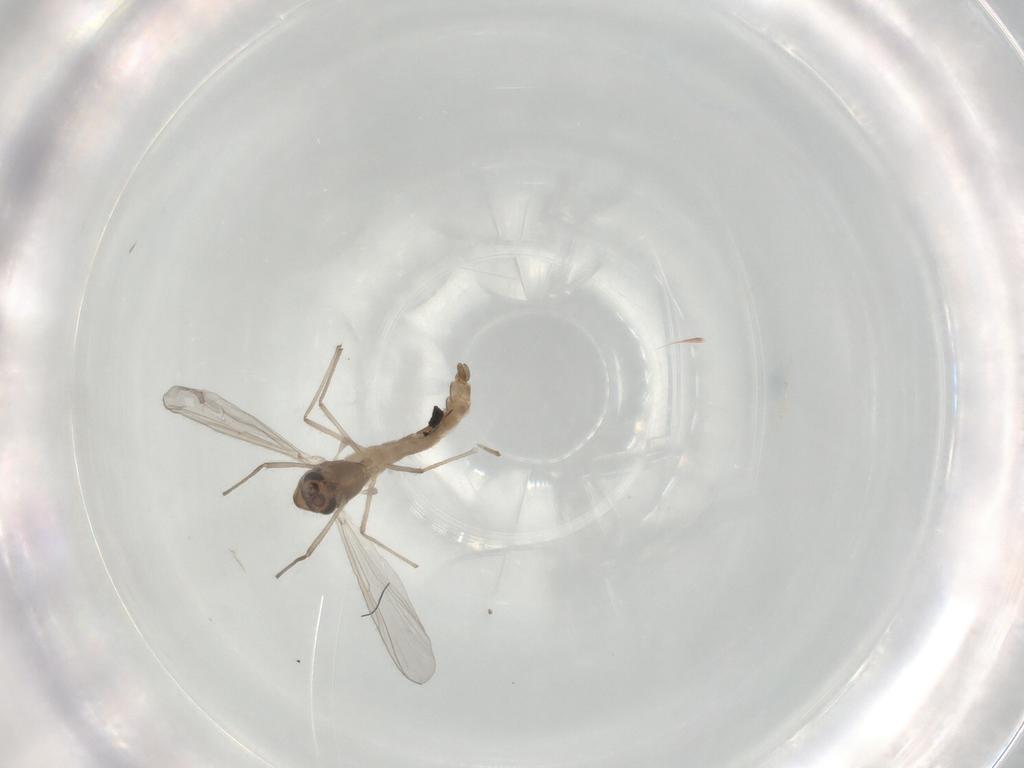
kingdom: Animalia
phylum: Arthropoda
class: Insecta
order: Diptera
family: Chironomidae
